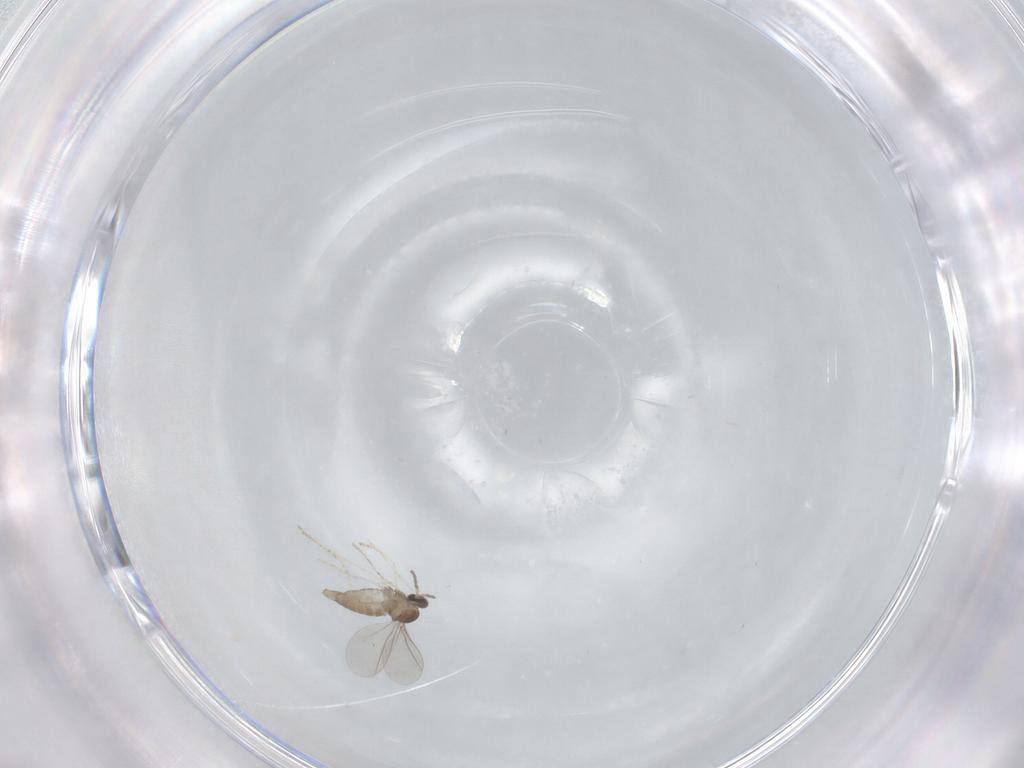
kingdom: Animalia
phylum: Arthropoda
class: Insecta
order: Diptera
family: Cecidomyiidae
